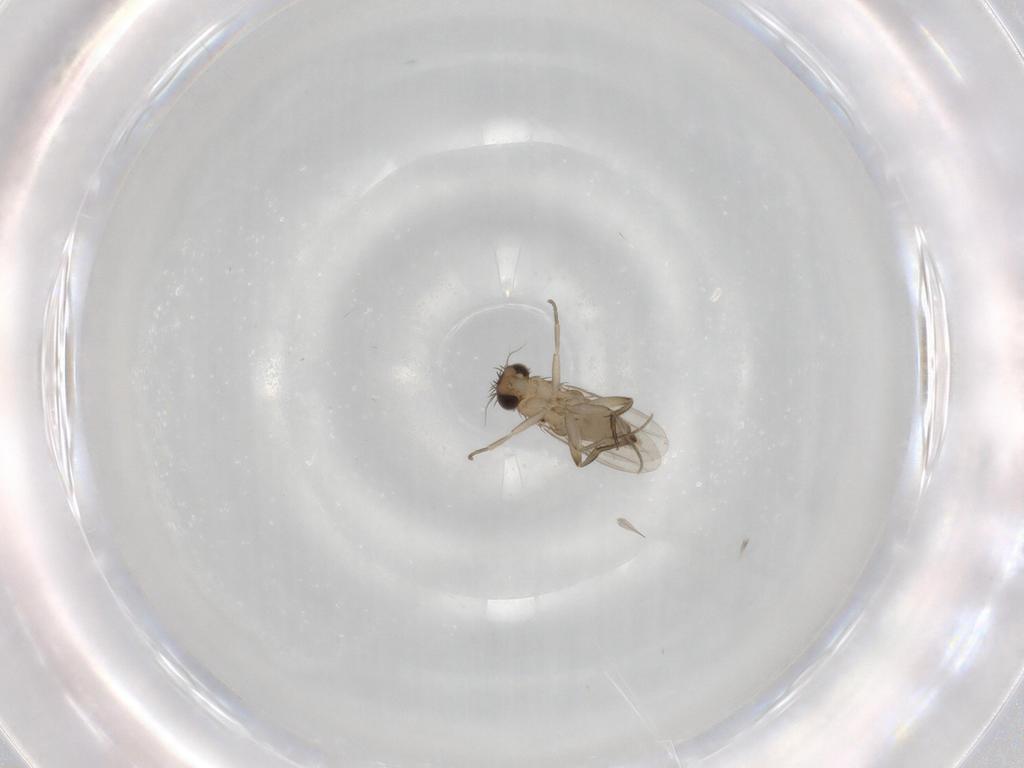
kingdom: Animalia
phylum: Arthropoda
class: Insecta
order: Diptera
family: Phoridae
